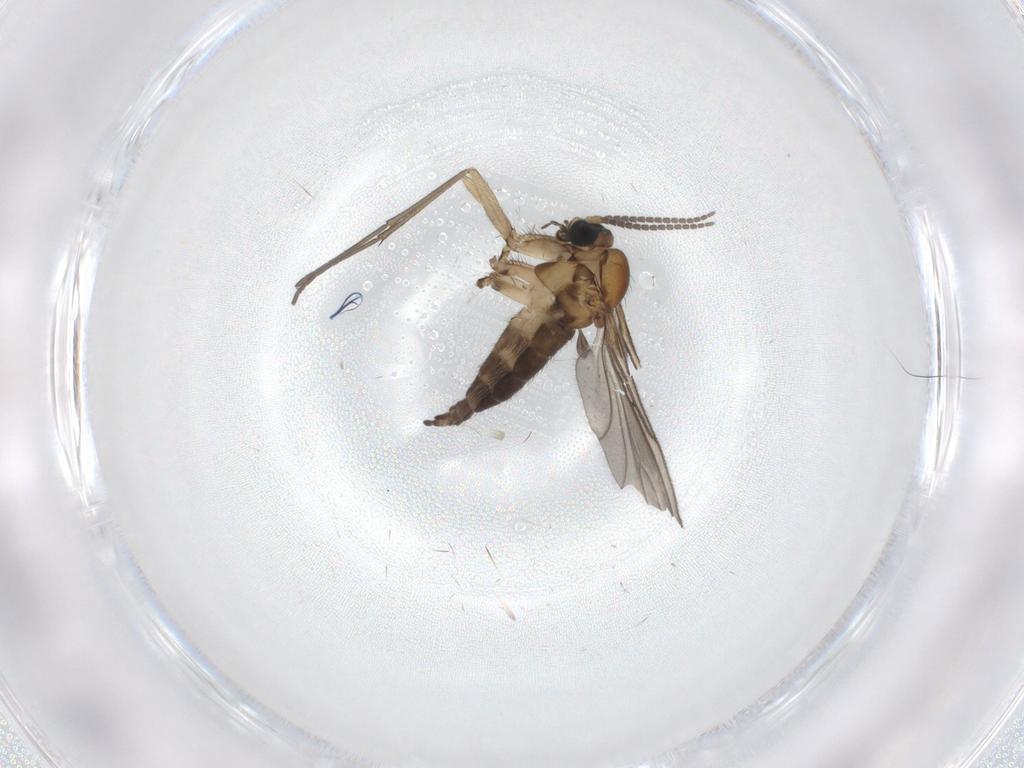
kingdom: Animalia
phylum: Arthropoda
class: Insecta
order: Diptera
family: Sciaridae
